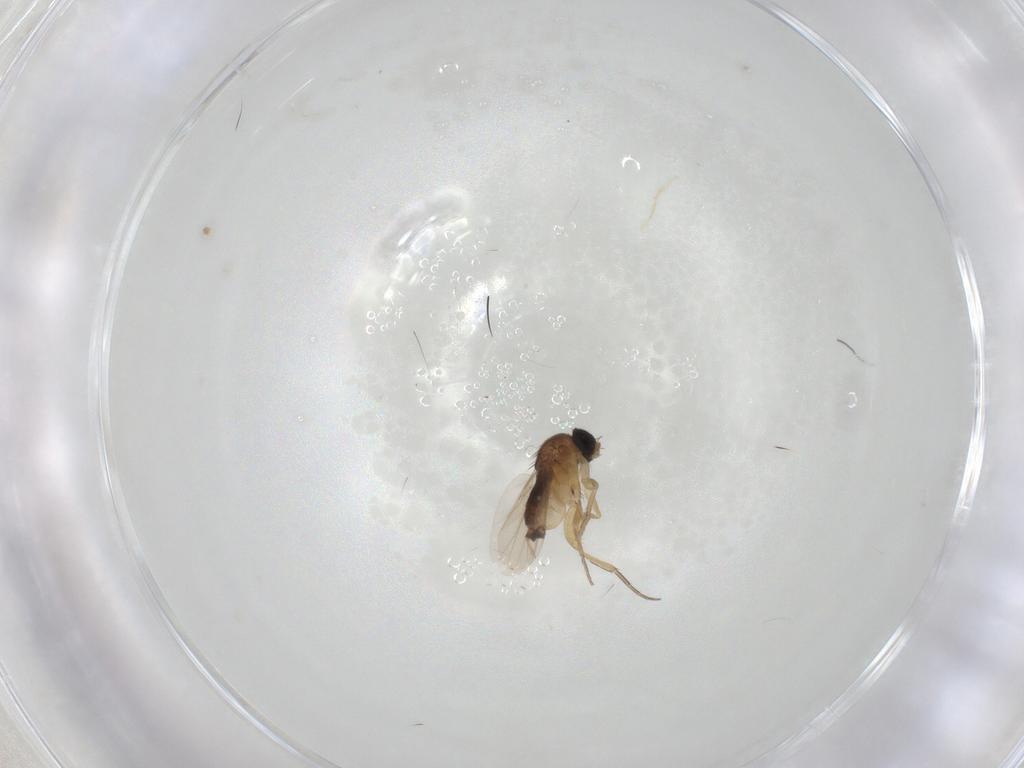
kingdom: Animalia
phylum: Arthropoda
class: Insecta
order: Diptera
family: Phoridae
